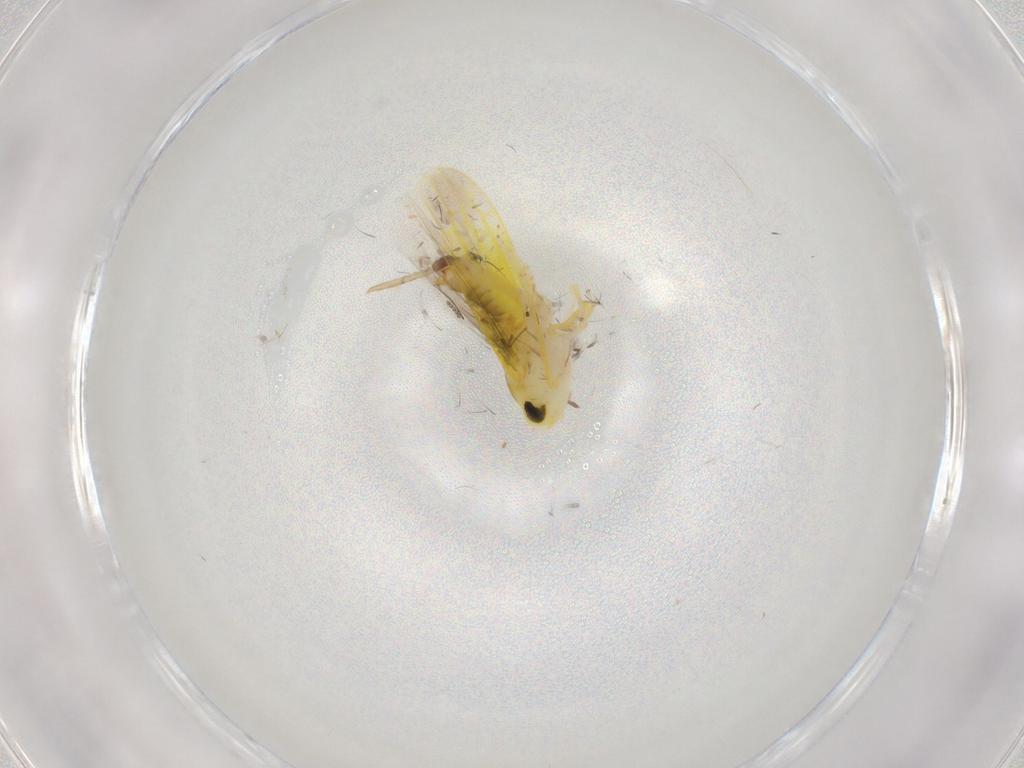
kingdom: Animalia
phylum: Arthropoda
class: Insecta
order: Hemiptera
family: Cicadellidae
